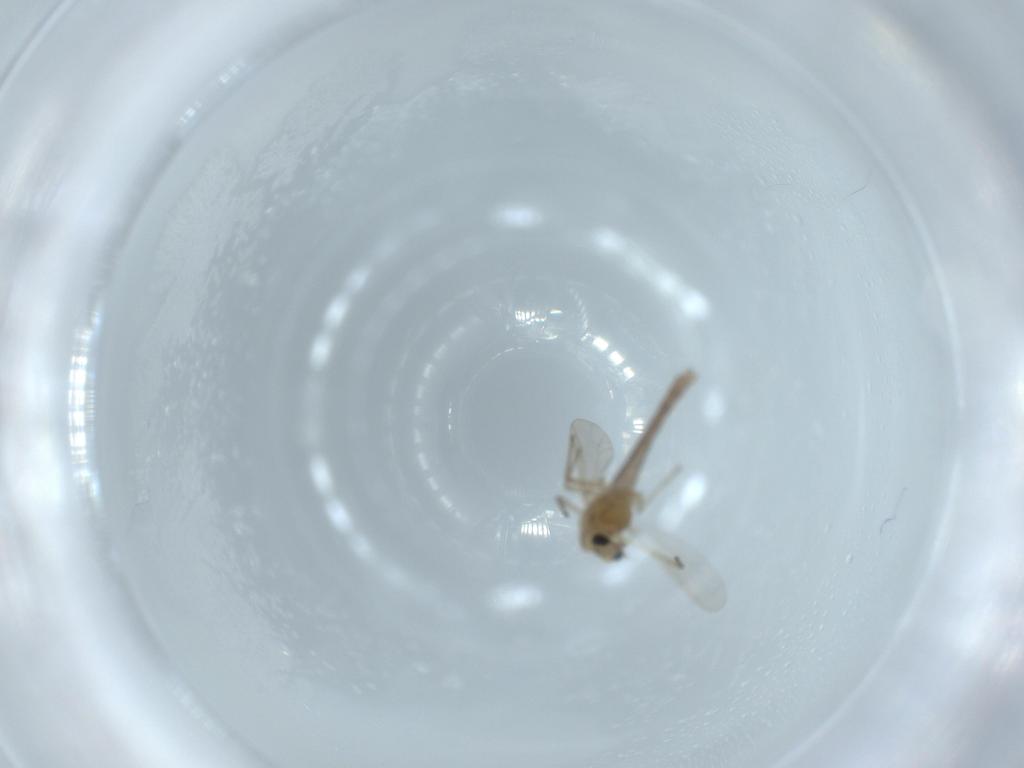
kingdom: Animalia
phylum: Arthropoda
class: Insecta
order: Diptera
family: Chironomidae
